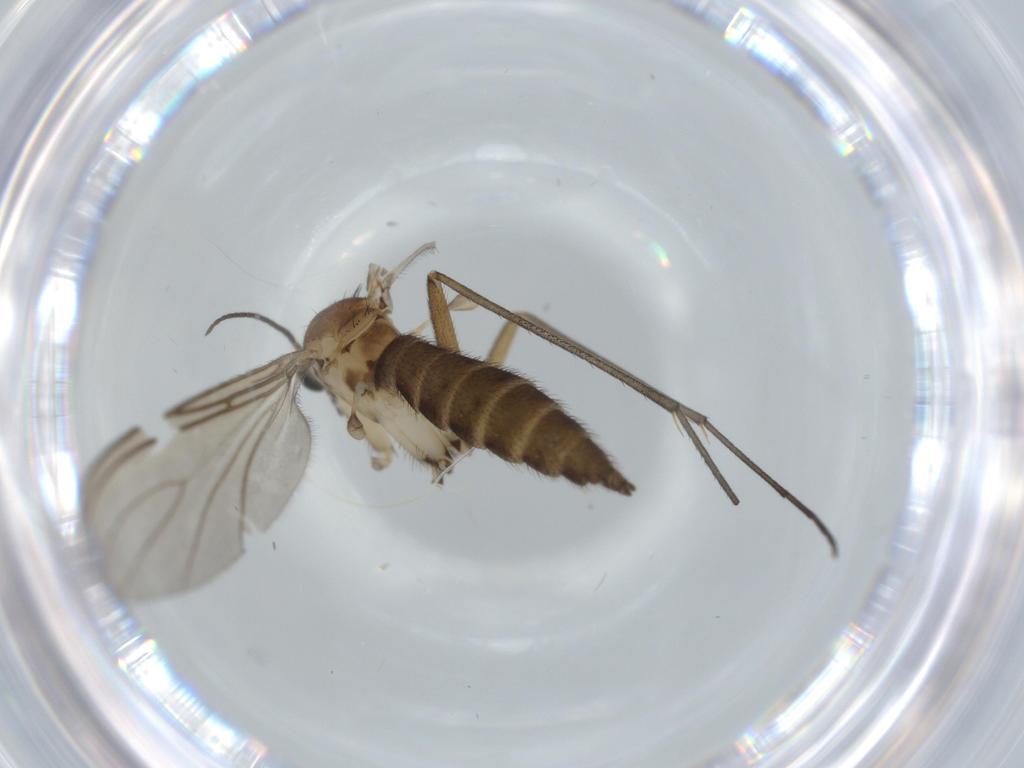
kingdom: Animalia
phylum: Arthropoda
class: Insecta
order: Diptera
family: Sciaridae
